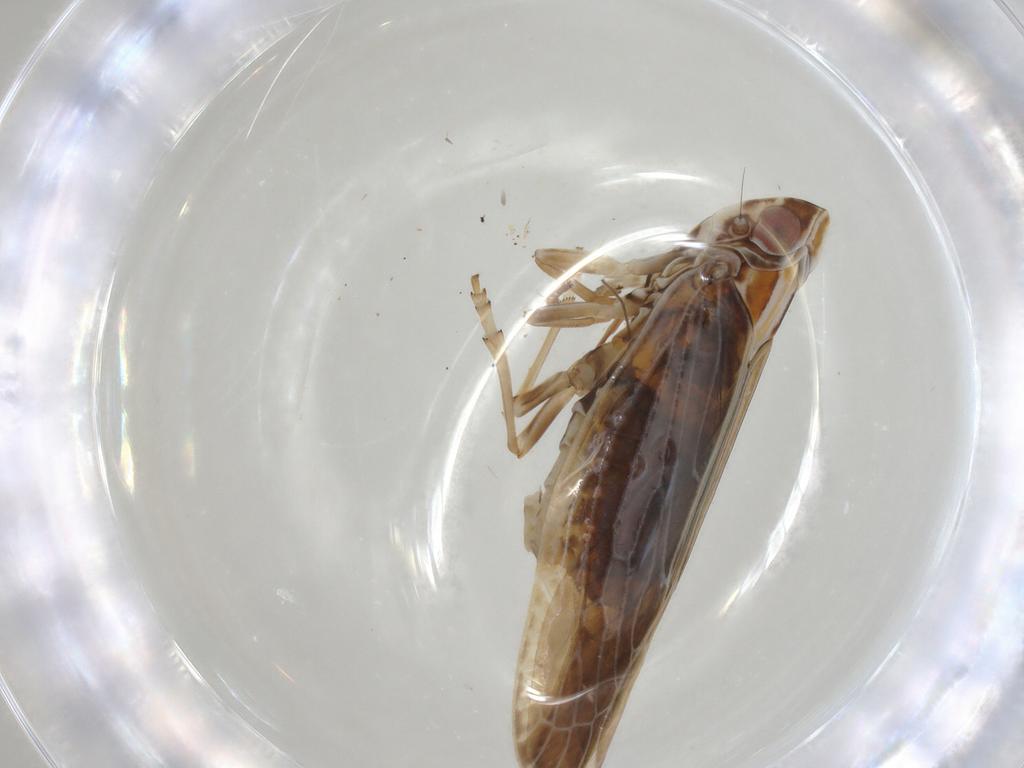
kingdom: Animalia
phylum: Arthropoda
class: Insecta
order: Hemiptera
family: Achilidae
